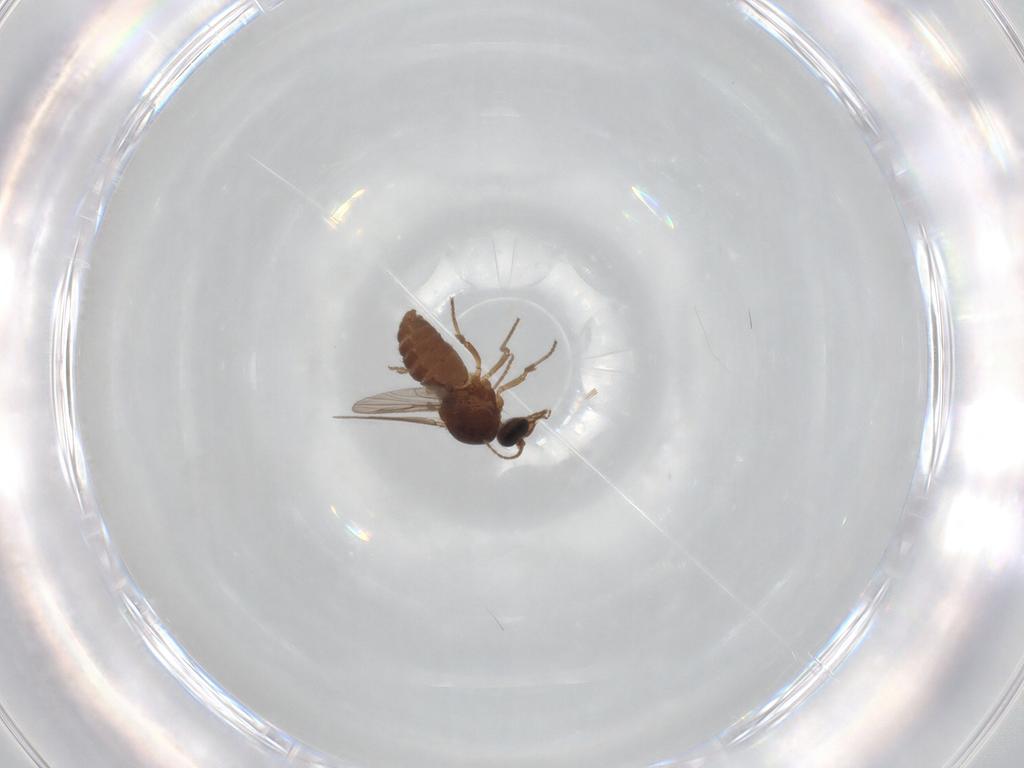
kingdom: Animalia
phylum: Arthropoda
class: Insecta
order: Diptera
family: Ceratopogonidae
